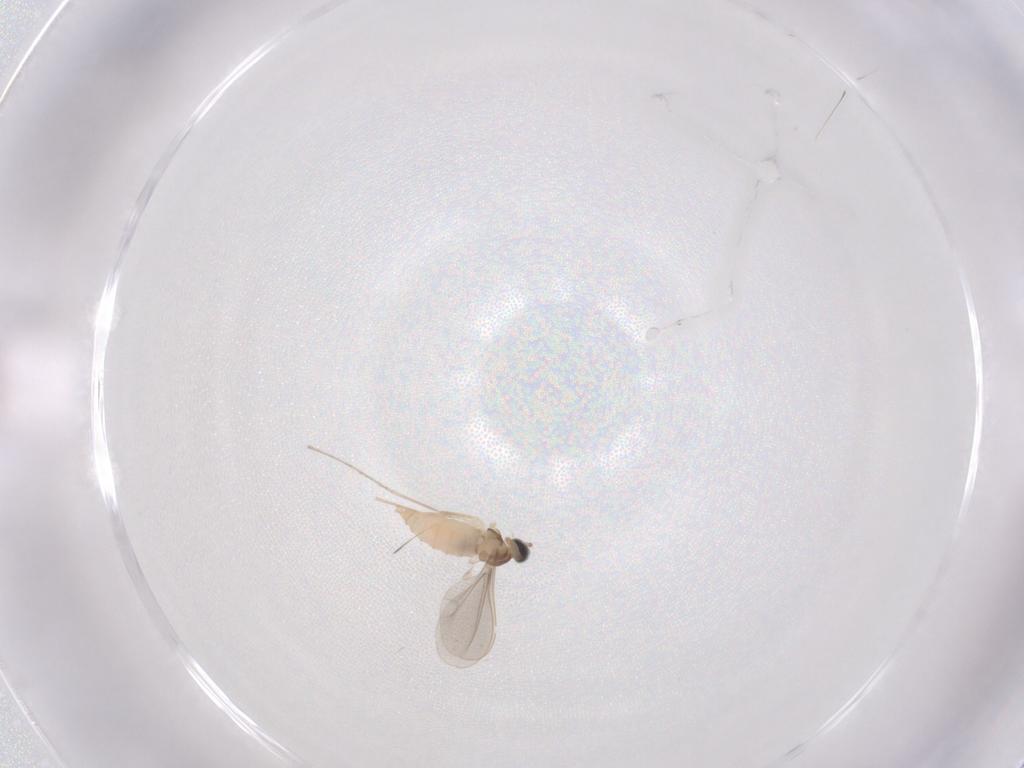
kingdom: Animalia
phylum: Arthropoda
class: Insecta
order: Diptera
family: Cecidomyiidae
